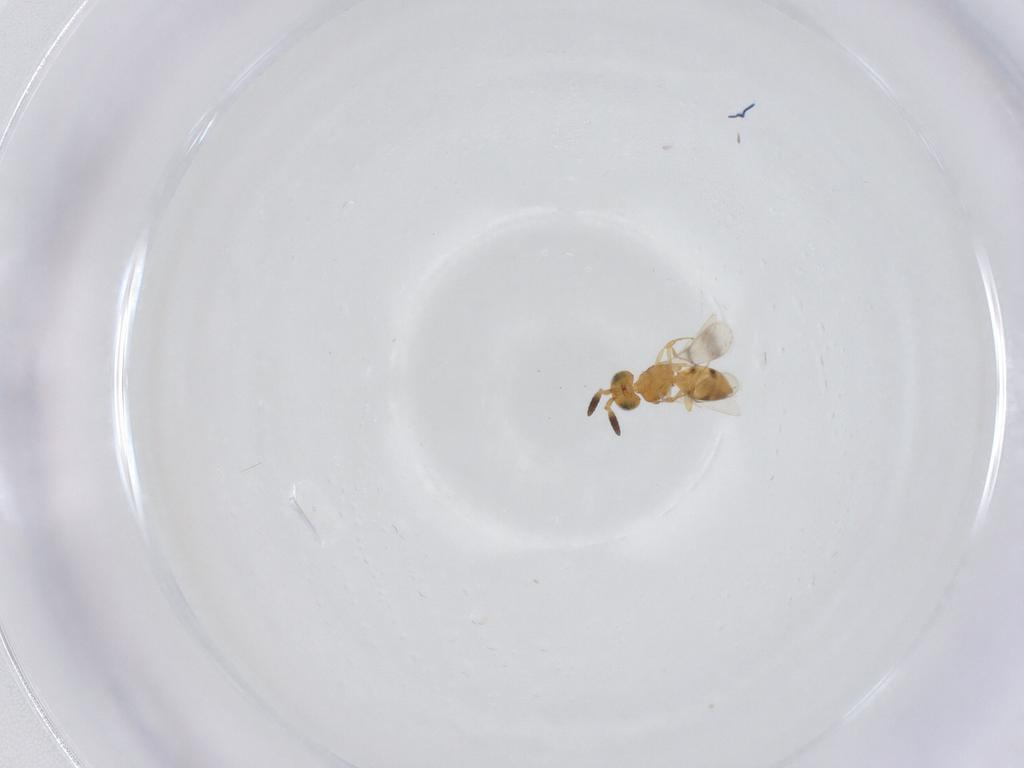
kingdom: Animalia
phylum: Arthropoda
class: Insecta
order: Hymenoptera
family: Scelionidae
